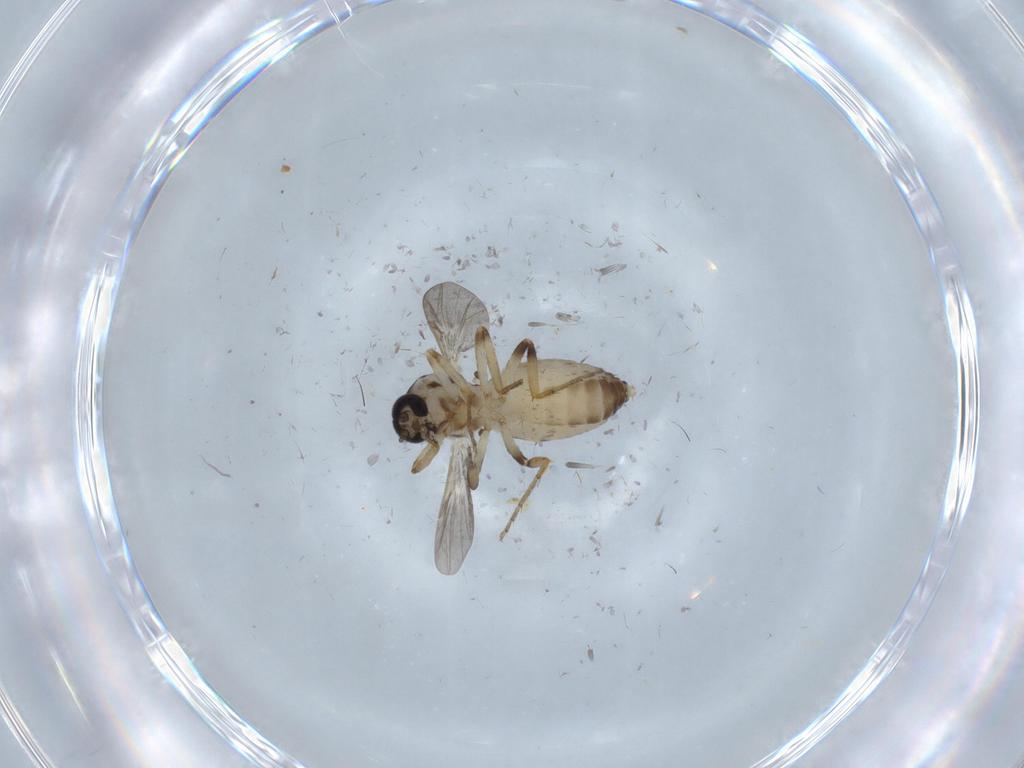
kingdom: Animalia
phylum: Arthropoda
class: Insecta
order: Diptera
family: Ceratopogonidae
